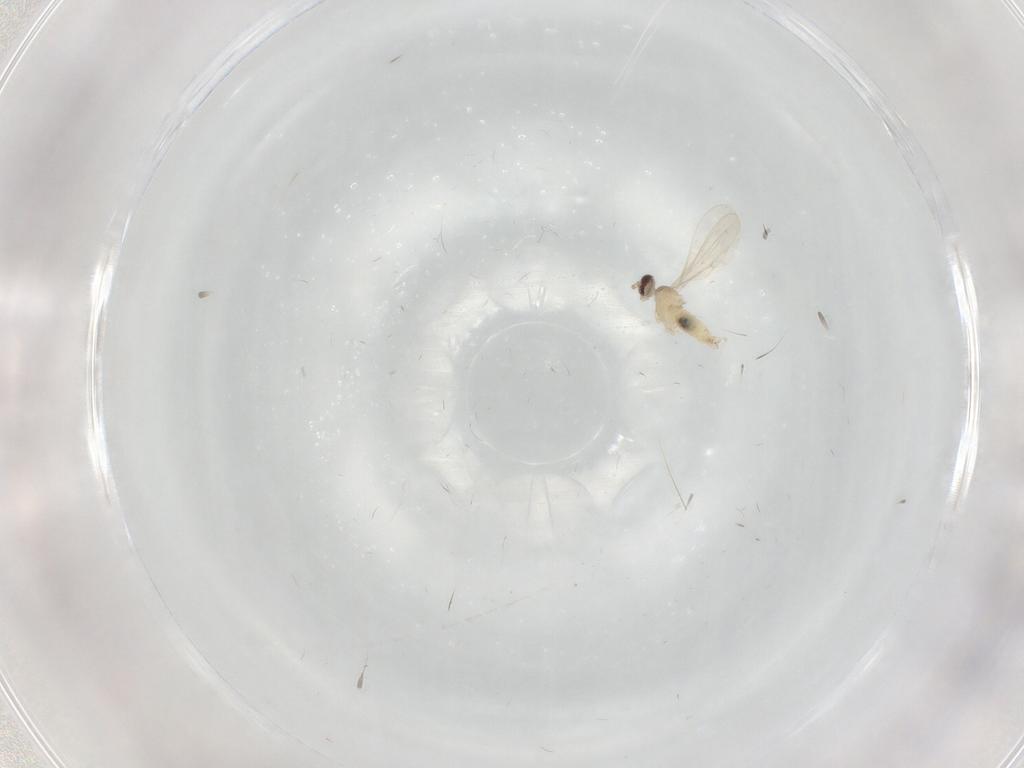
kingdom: Animalia
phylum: Arthropoda
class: Insecta
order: Diptera
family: Cecidomyiidae
